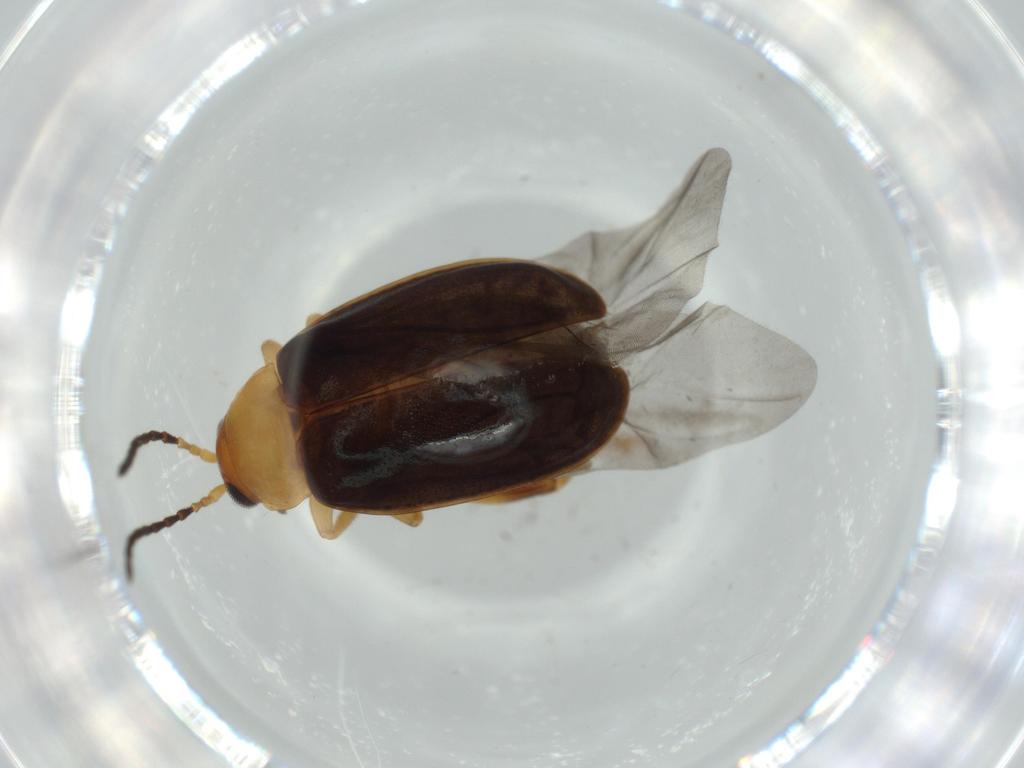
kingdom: Animalia
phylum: Arthropoda
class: Insecta
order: Coleoptera
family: Chrysomelidae
